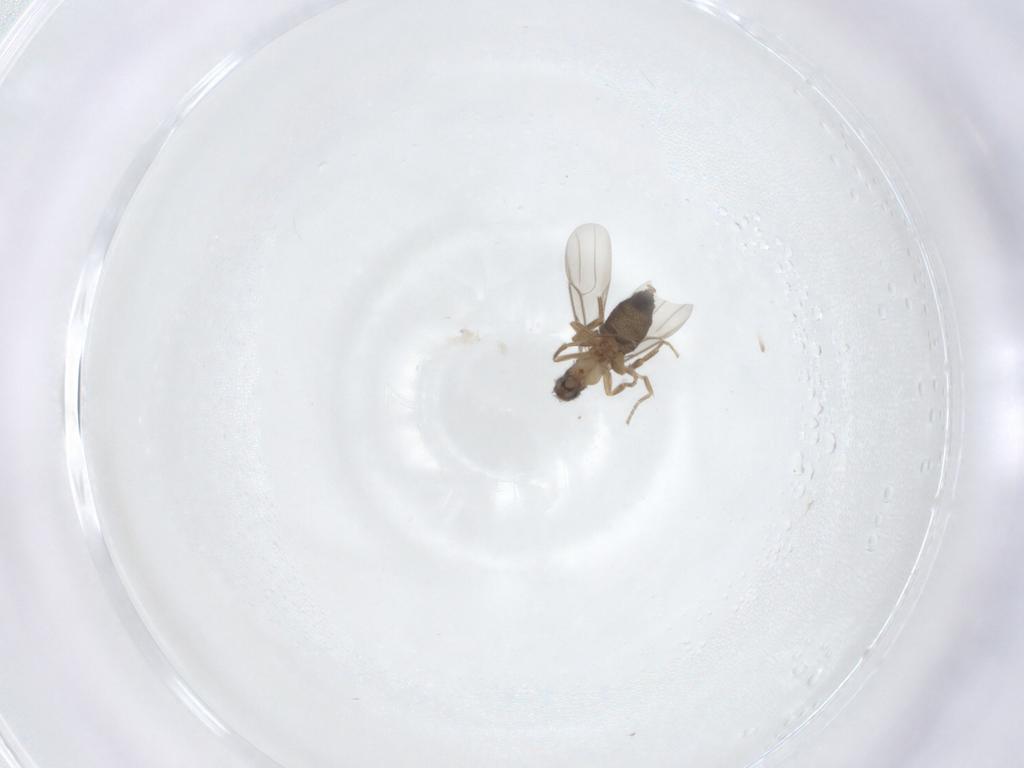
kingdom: Animalia
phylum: Arthropoda
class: Insecta
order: Diptera
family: Phoridae
